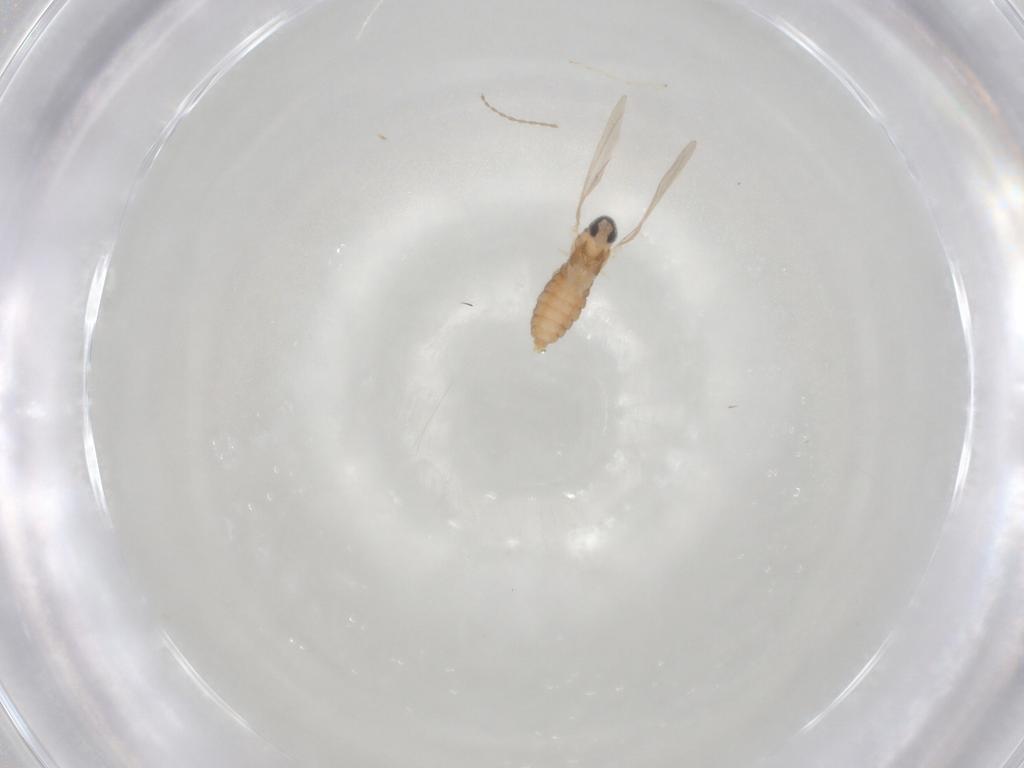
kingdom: Animalia
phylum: Arthropoda
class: Insecta
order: Diptera
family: Cecidomyiidae
